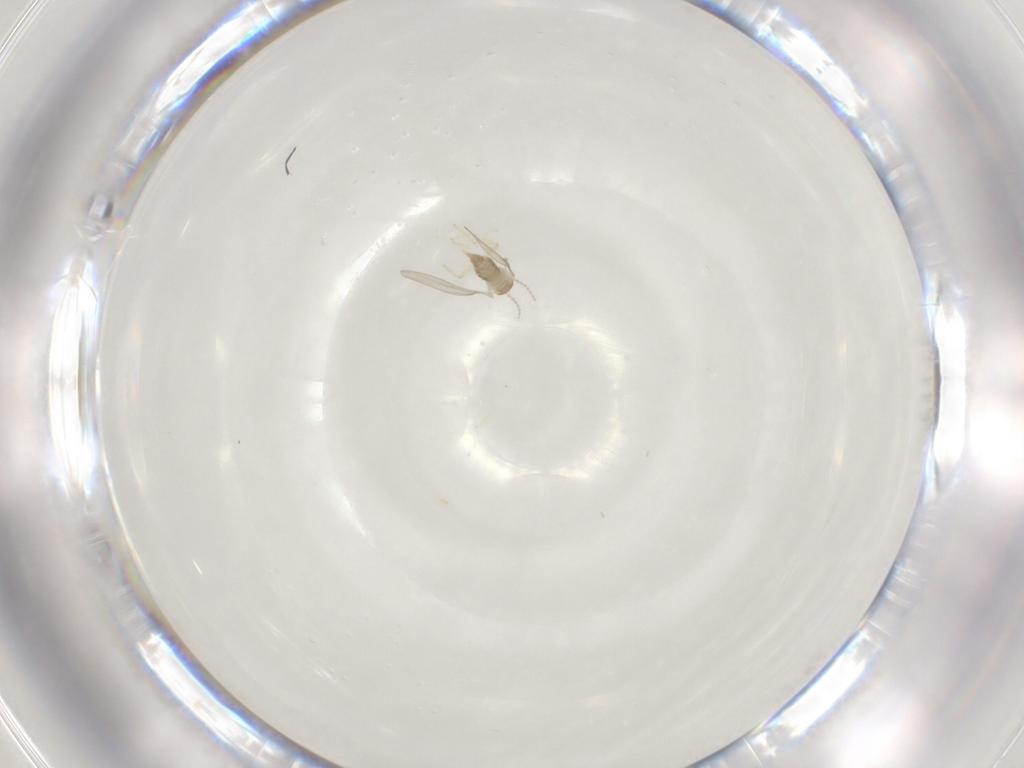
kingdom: Animalia
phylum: Arthropoda
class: Insecta
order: Diptera
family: Cecidomyiidae
